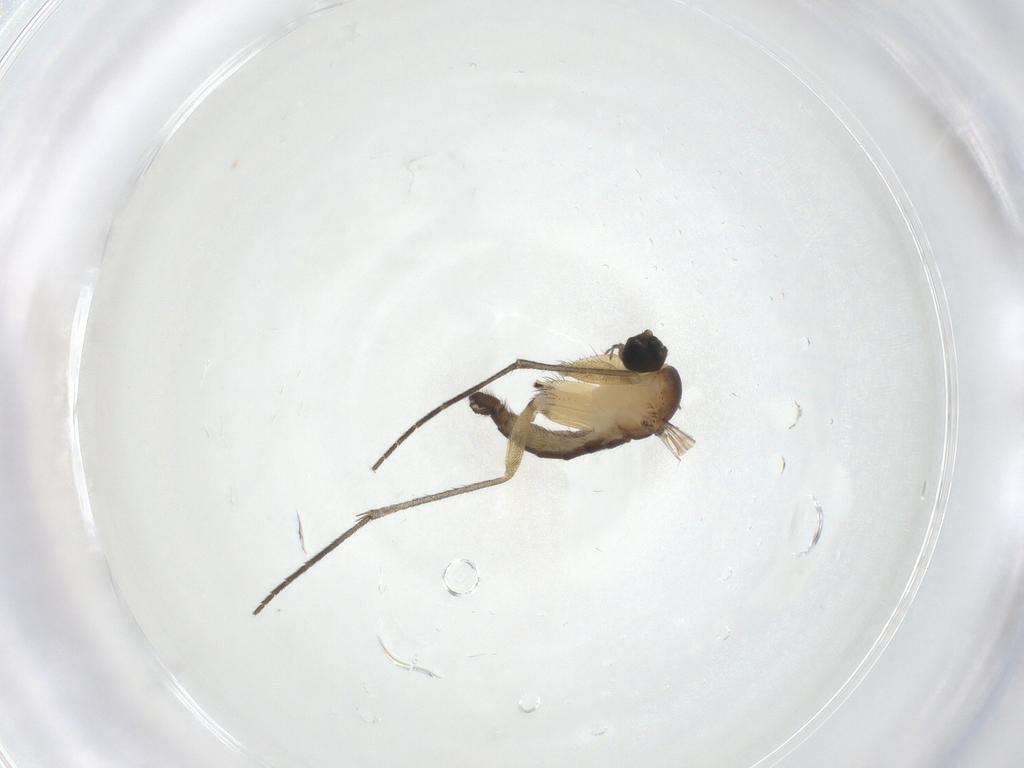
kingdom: Animalia
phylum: Arthropoda
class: Insecta
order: Diptera
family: Sciaridae
